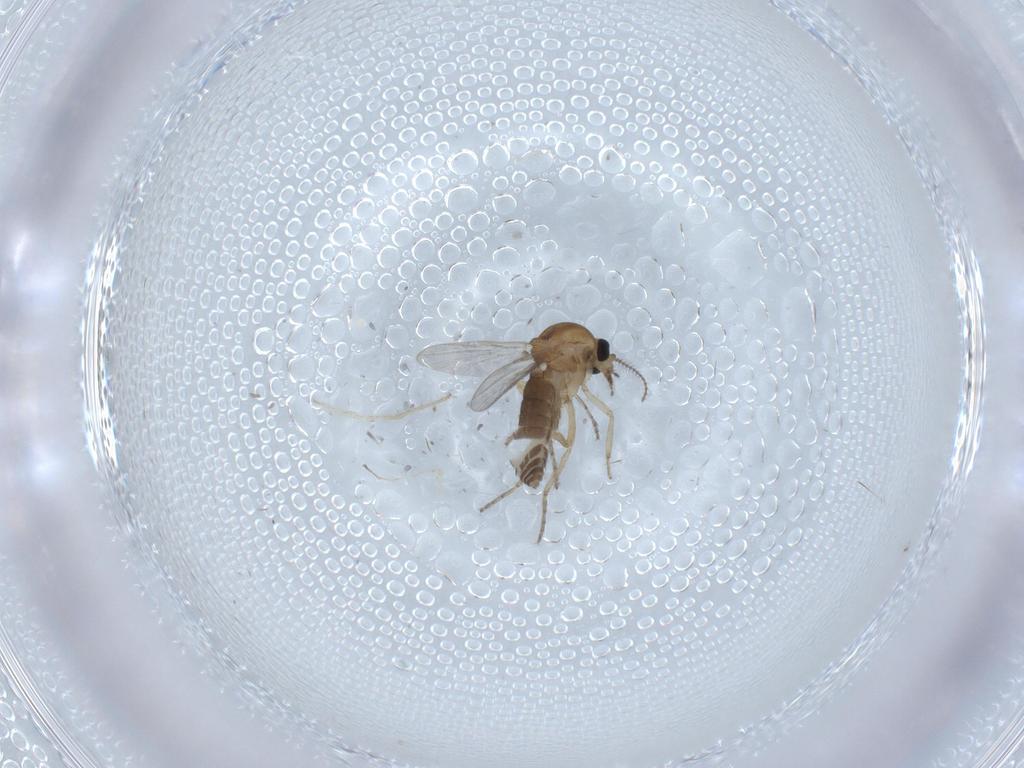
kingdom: Animalia
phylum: Arthropoda
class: Insecta
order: Diptera
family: Ceratopogonidae
